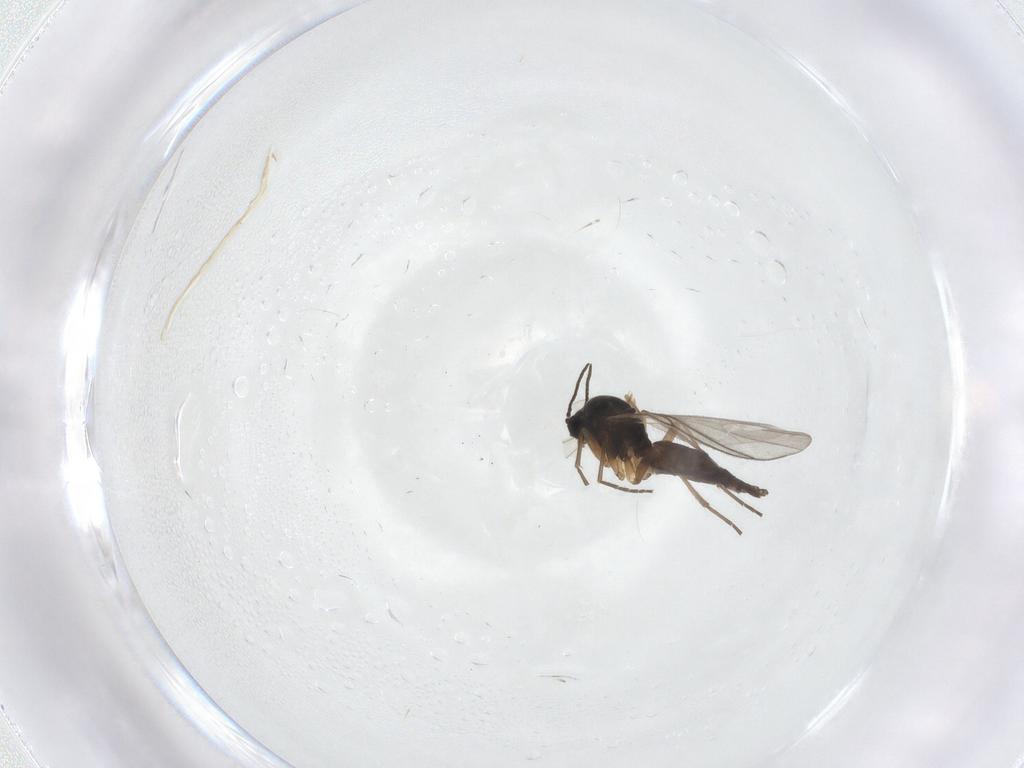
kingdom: Animalia
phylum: Arthropoda
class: Insecta
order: Diptera
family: Sciaridae
